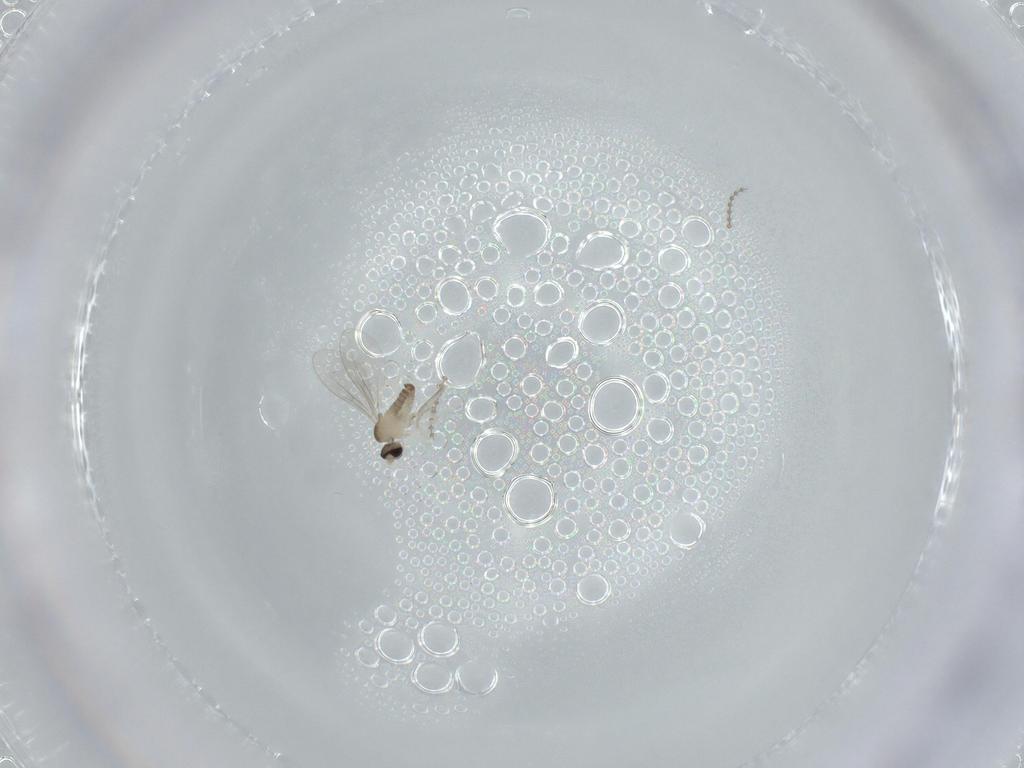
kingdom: Animalia
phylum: Arthropoda
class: Insecta
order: Diptera
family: Cecidomyiidae
